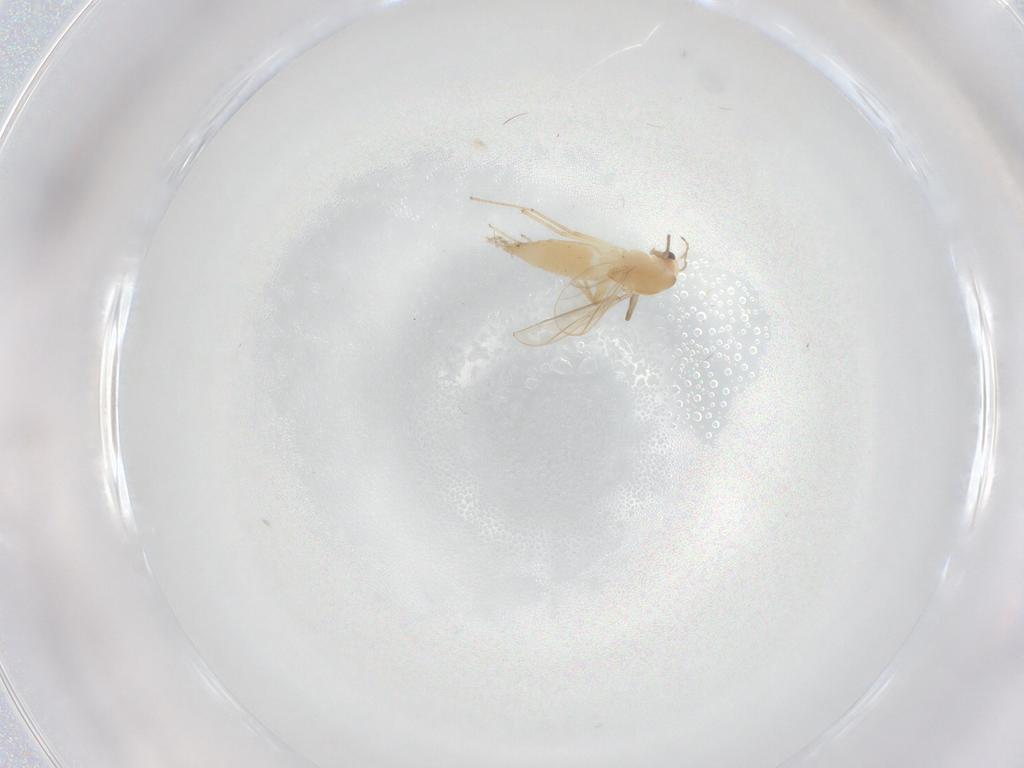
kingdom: Animalia
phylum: Arthropoda
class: Insecta
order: Diptera
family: Chironomidae
